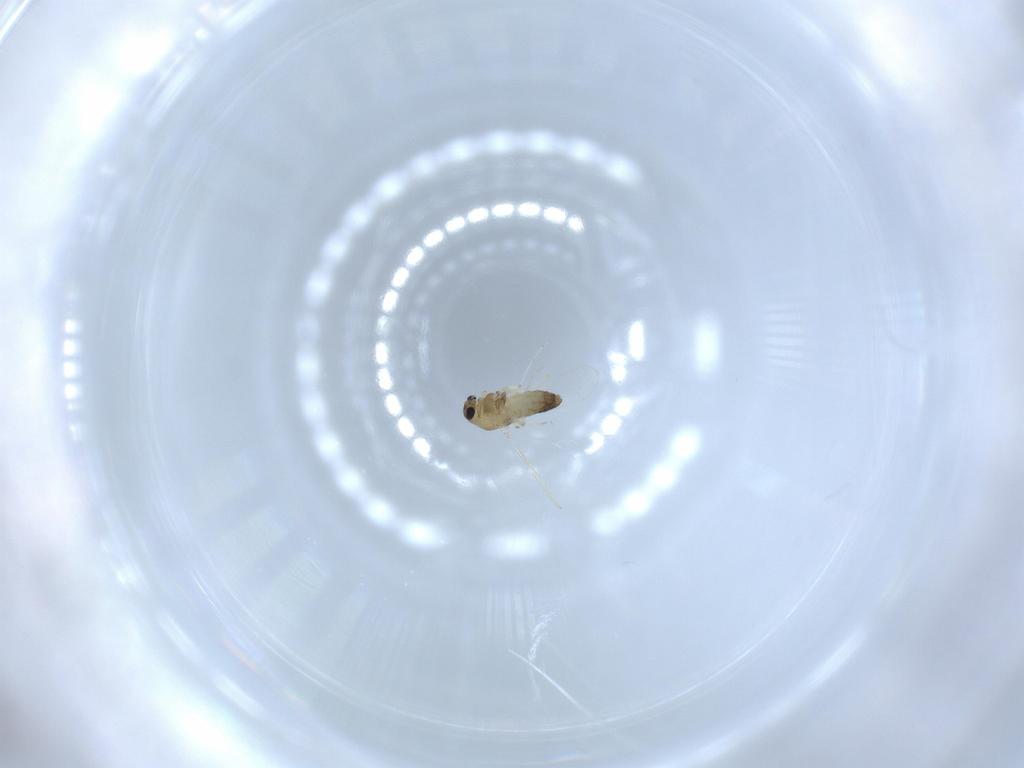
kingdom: Animalia
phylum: Arthropoda
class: Insecta
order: Diptera
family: Chironomidae
